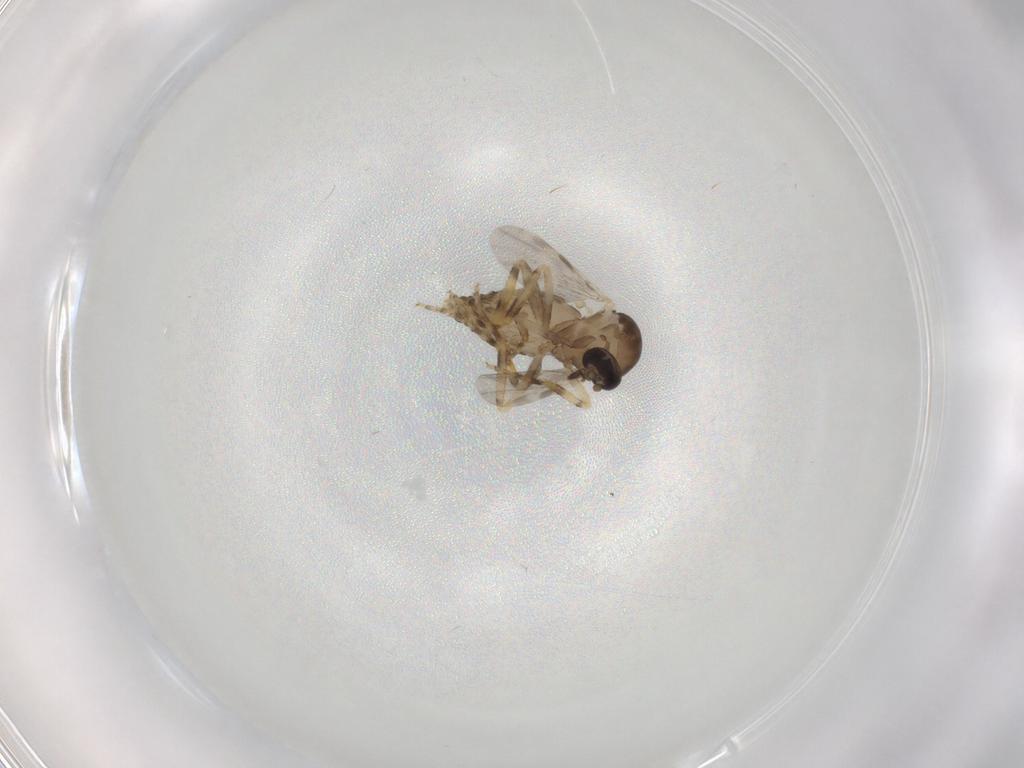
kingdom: Animalia
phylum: Arthropoda
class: Insecta
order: Diptera
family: Ceratopogonidae
